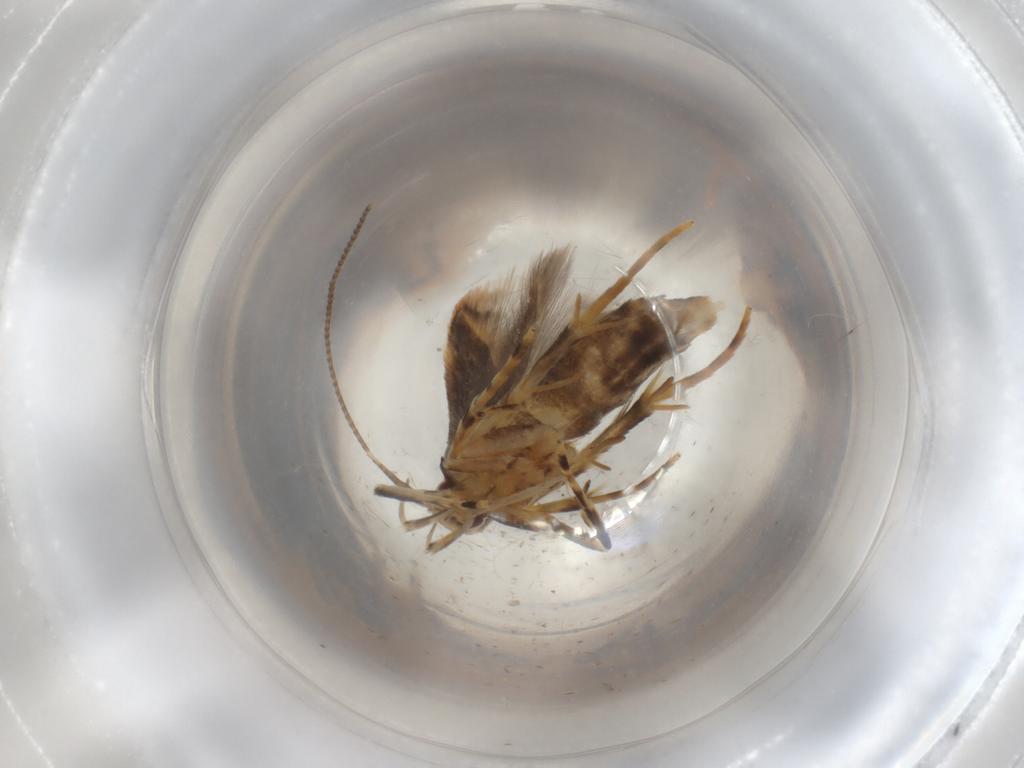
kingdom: Animalia
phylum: Arthropoda
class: Insecta
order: Lepidoptera
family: Cosmopterigidae
